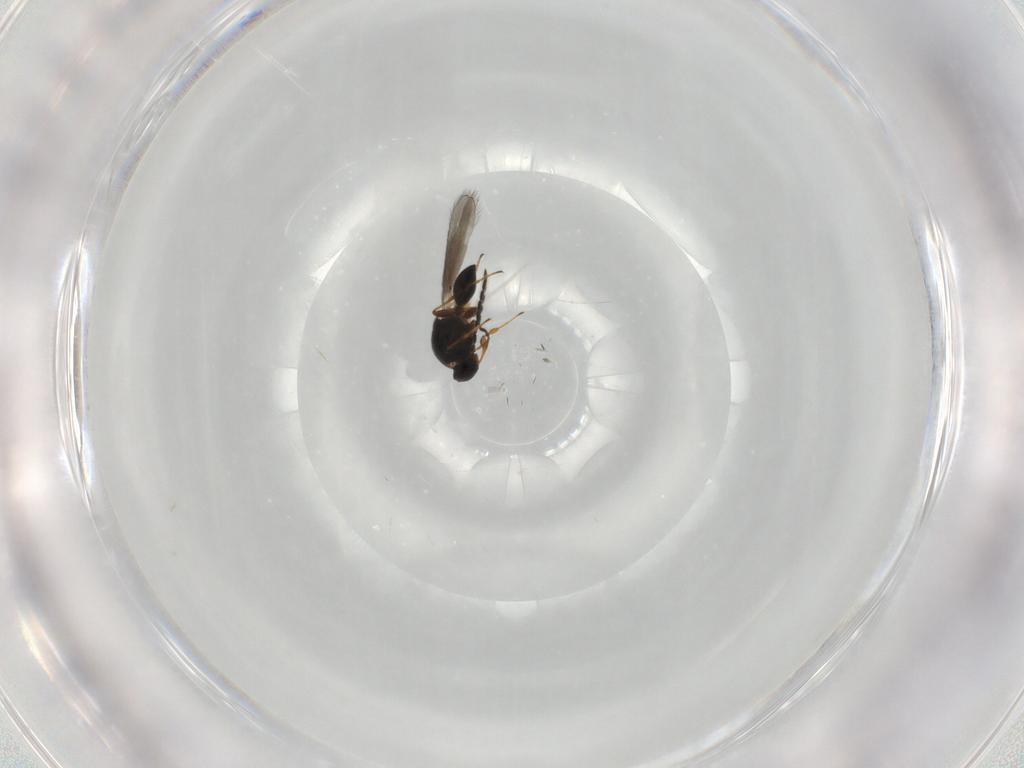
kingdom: Animalia
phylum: Arthropoda
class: Insecta
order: Hymenoptera
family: Platygastridae
